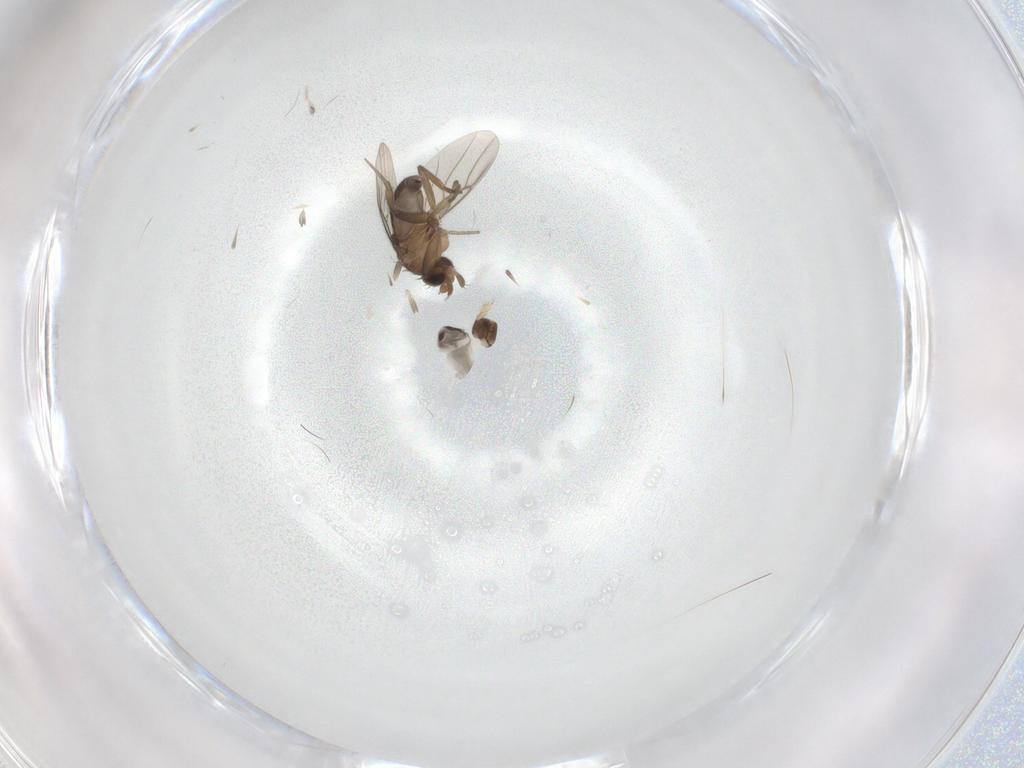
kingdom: Animalia
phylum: Arthropoda
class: Insecta
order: Diptera
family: Phoridae
